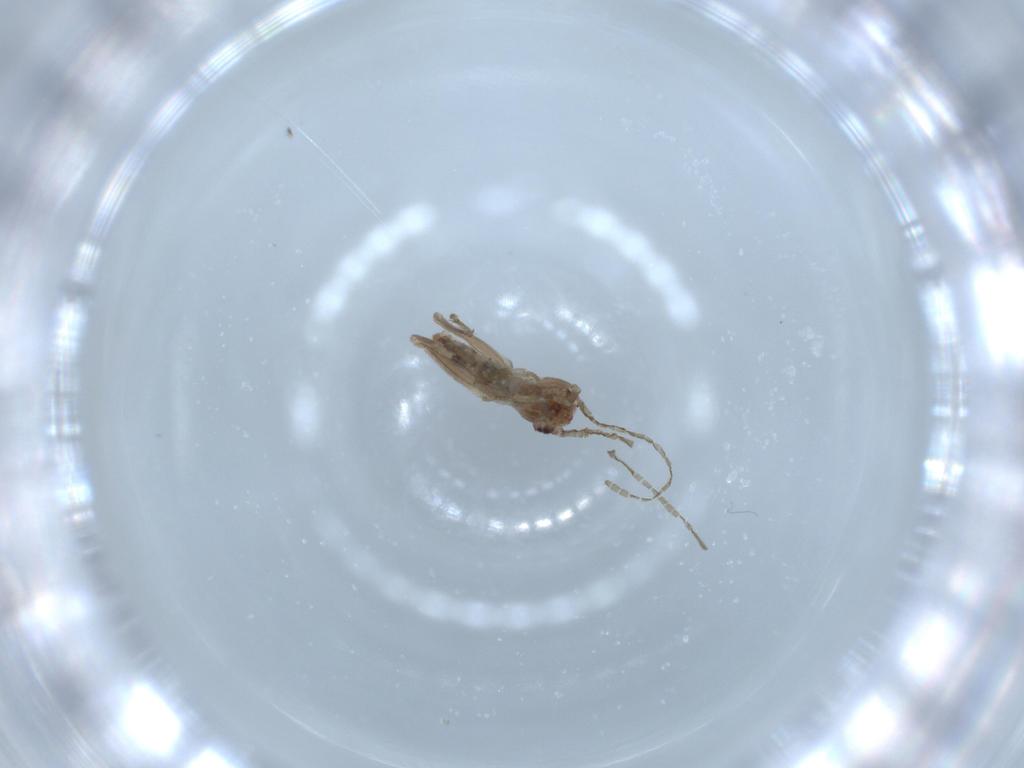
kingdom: Animalia
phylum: Arthropoda
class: Insecta
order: Orthoptera
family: Mogoplistidae
